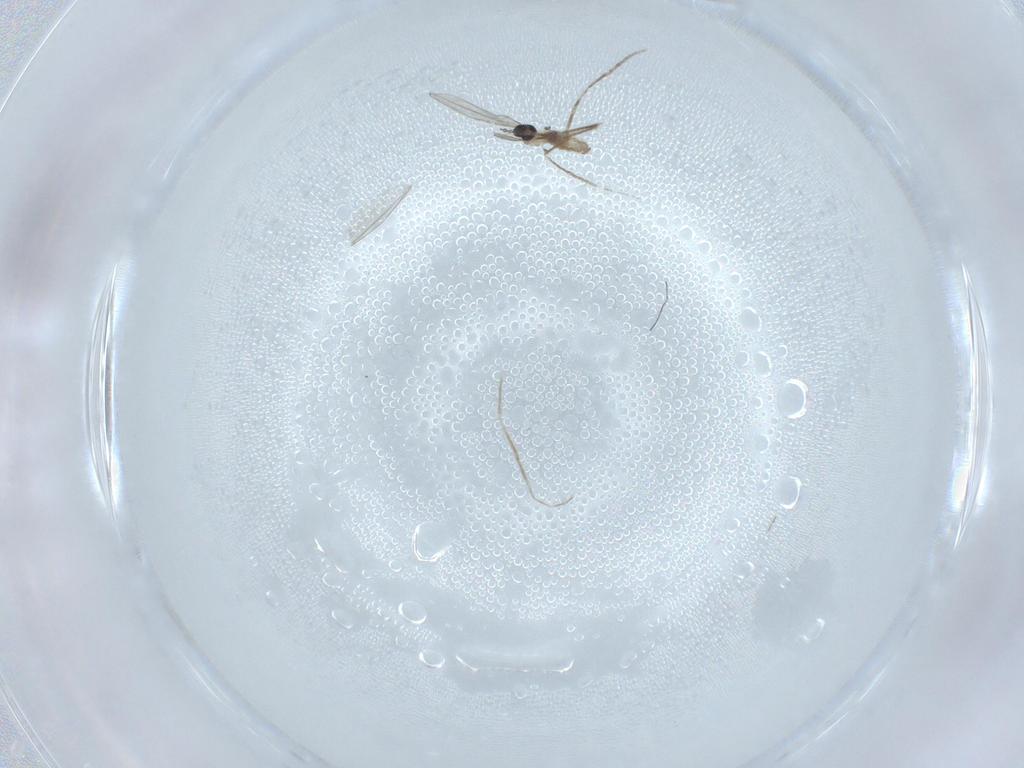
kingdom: Animalia
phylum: Arthropoda
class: Insecta
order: Diptera
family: Cecidomyiidae
